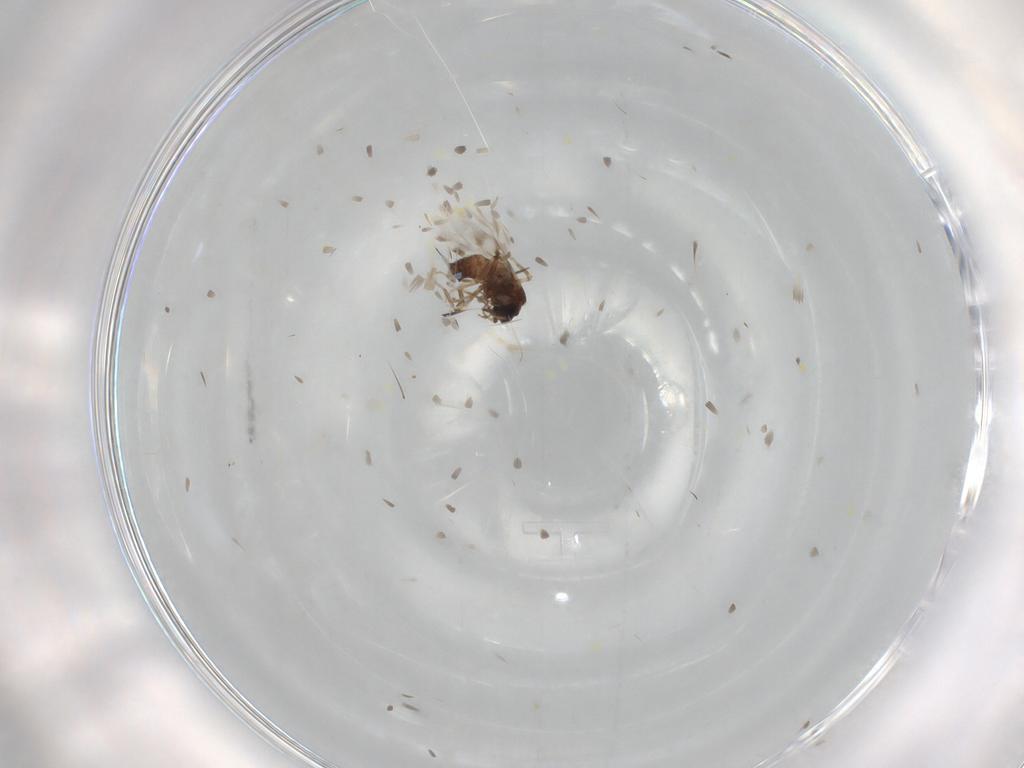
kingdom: Animalia
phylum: Arthropoda
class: Insecta
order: Diptera
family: Ceratopogonidae
